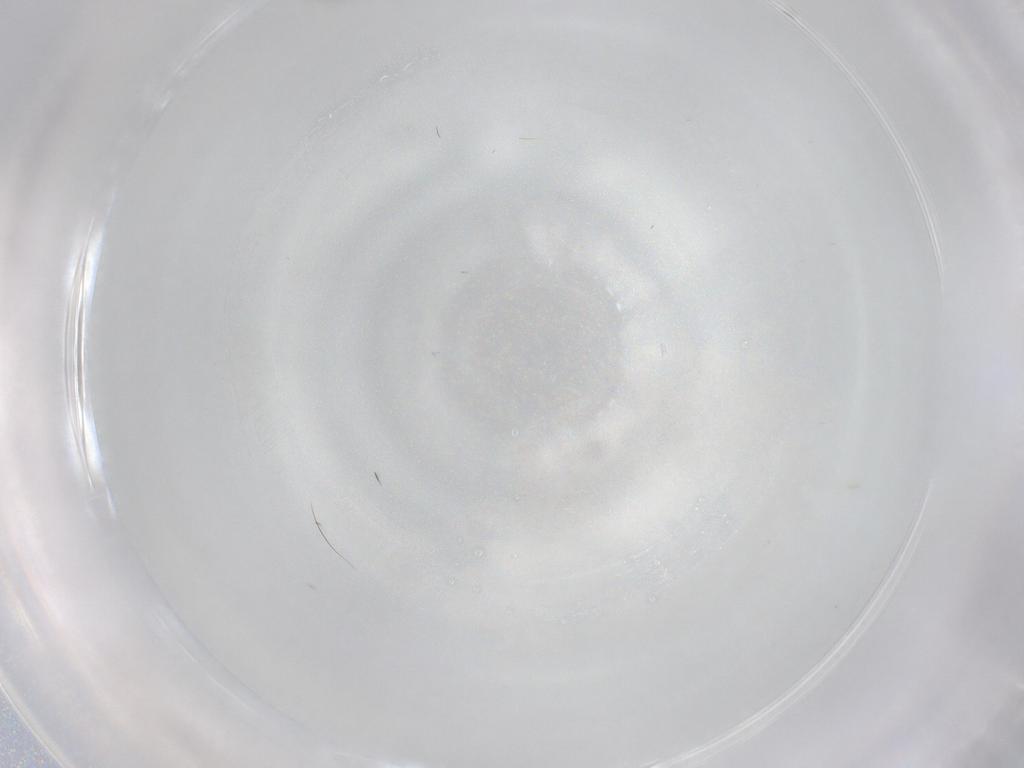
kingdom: Animalia
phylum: Arthropoda
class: Insecta
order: Hymenoptera
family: Platygastridae
